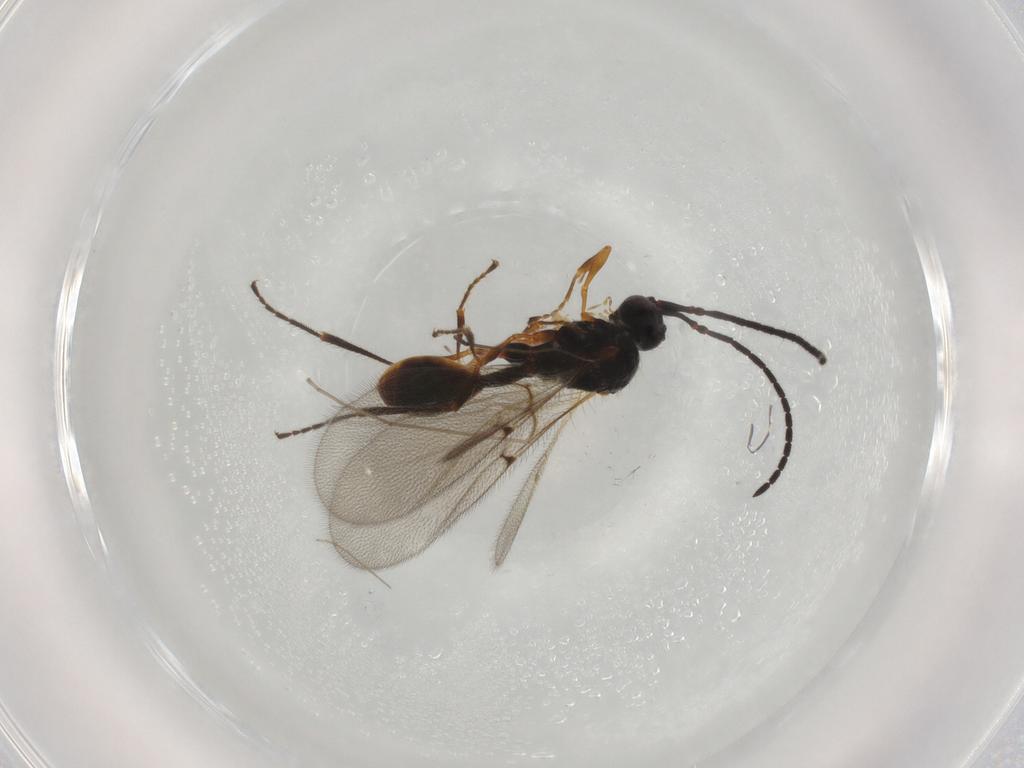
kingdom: Animalia
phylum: Arthropoda
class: Insecta
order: Hymenoptera
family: Diapriidae
